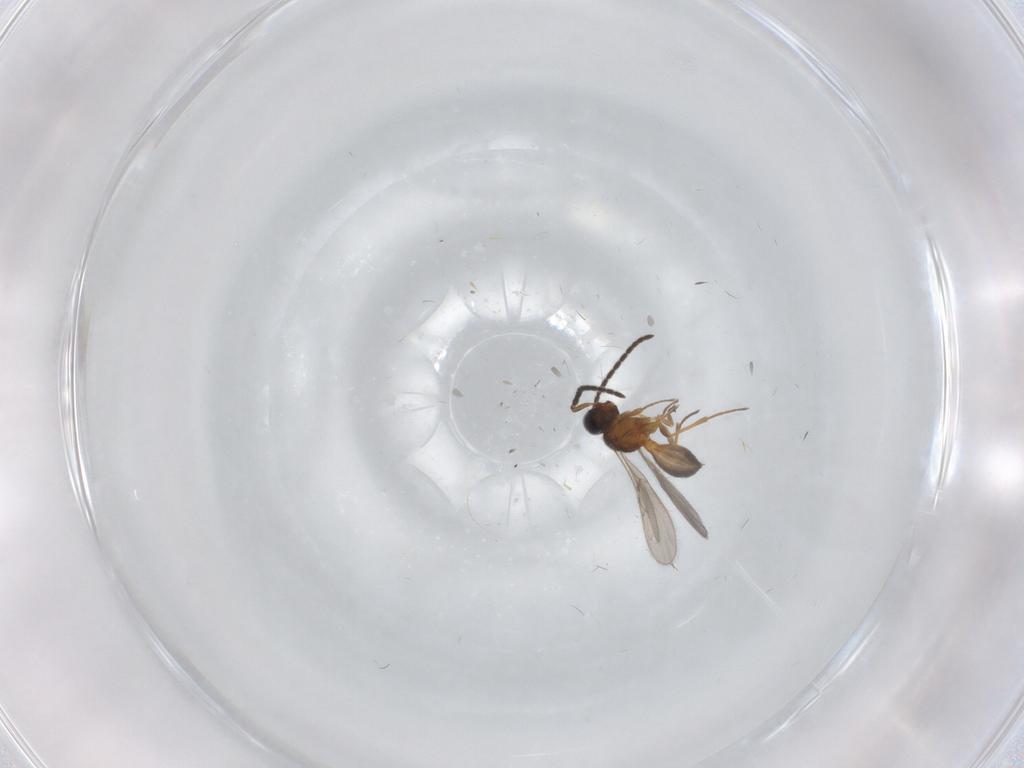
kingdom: Animalia
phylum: Arthropoda
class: Insecta
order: Hymenoptera
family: Scelionidae
